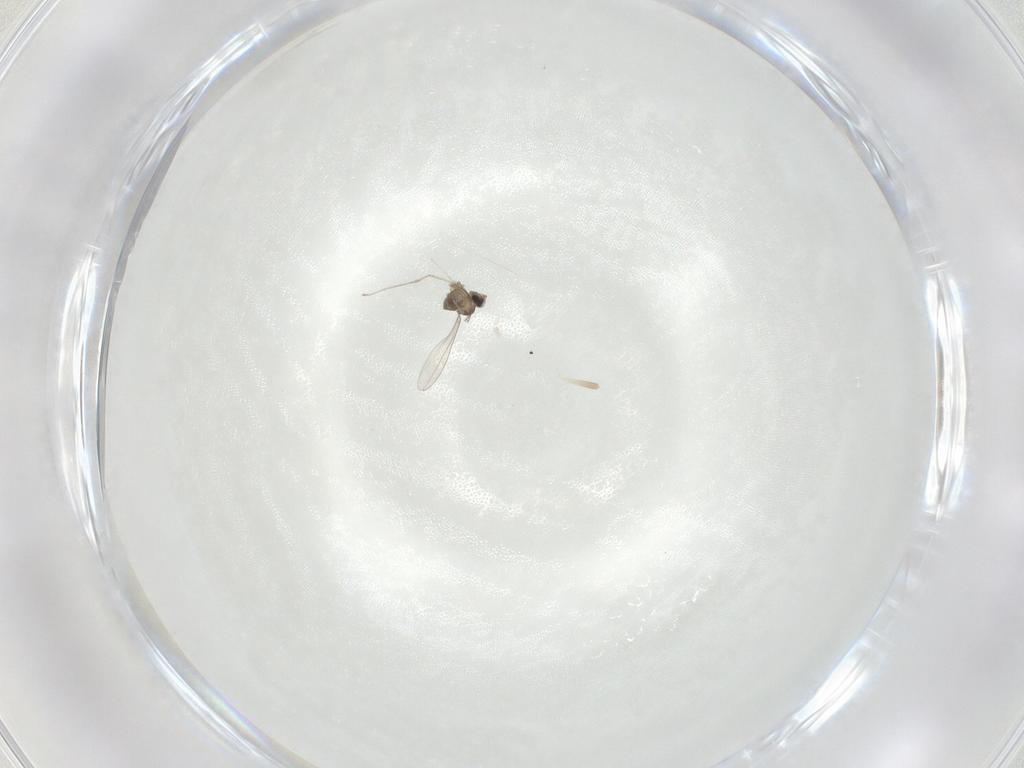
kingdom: Animalia
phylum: Arthropoda
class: Insecta
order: Diptera
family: Cecidomyiidae
